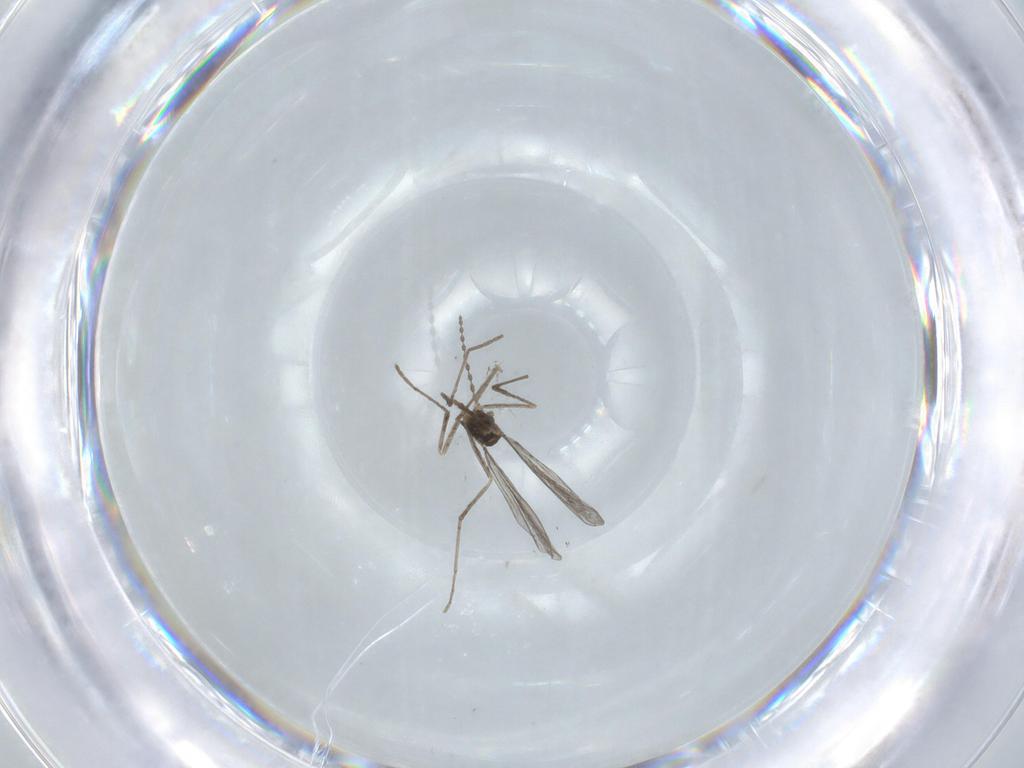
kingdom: Animalia
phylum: Arthropoda
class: Insecta
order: Diptera
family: Cecidomyiidae
